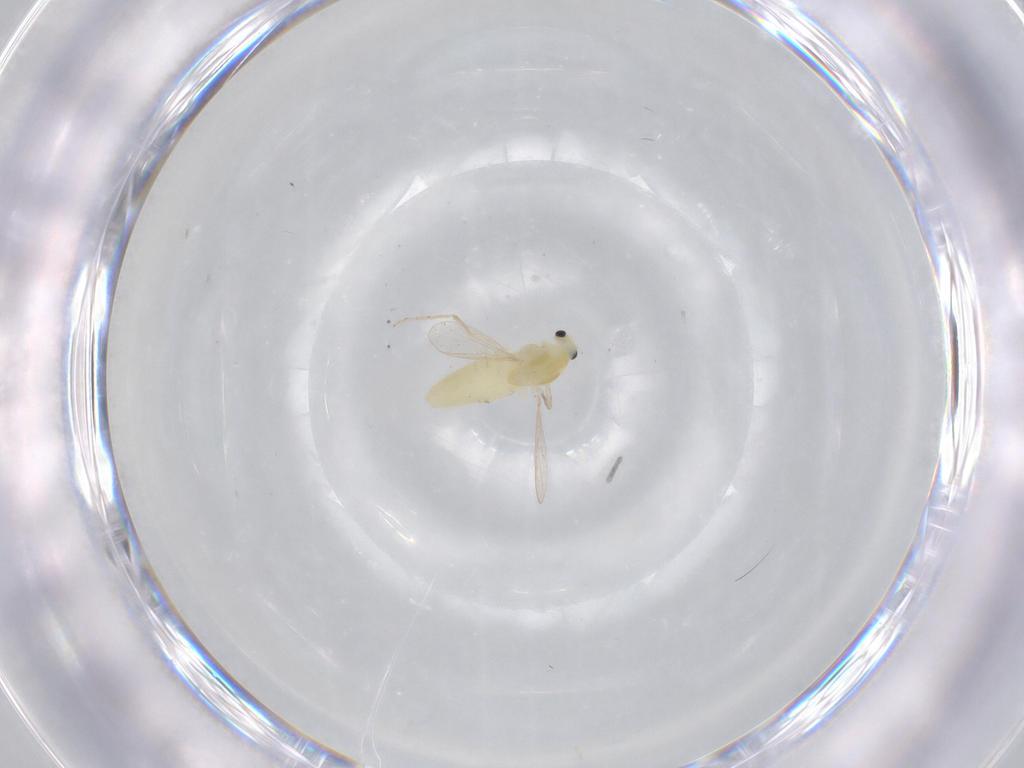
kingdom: Animalia
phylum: Arthropoda
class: Insecta
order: Diptera
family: Chironomidae
